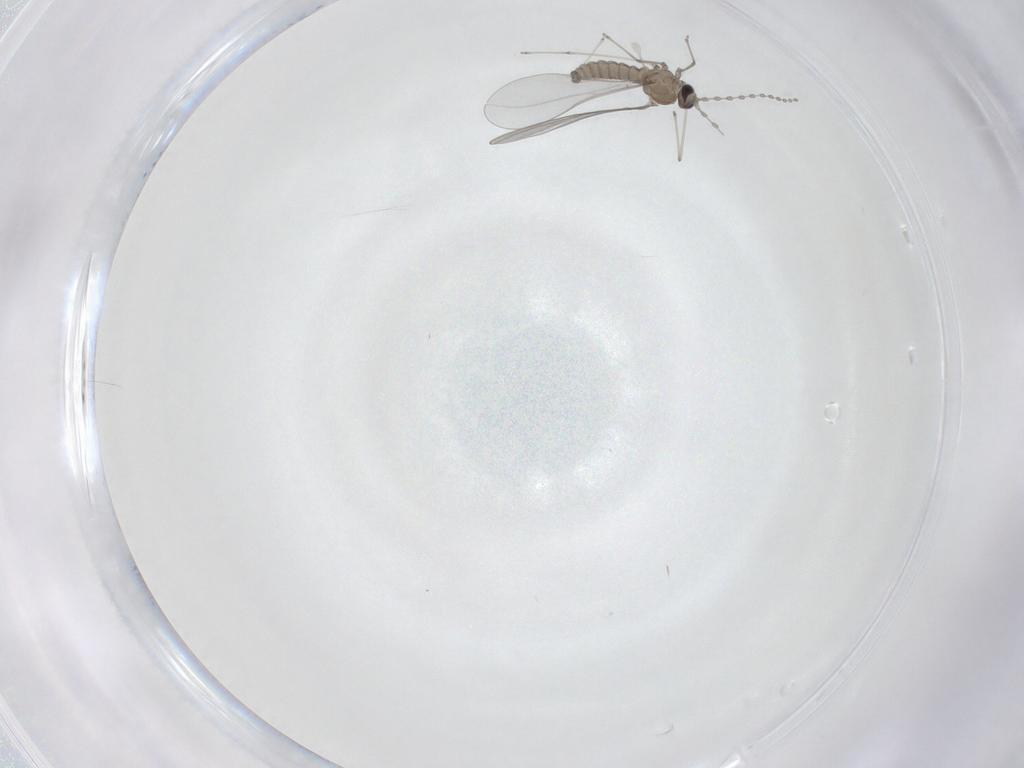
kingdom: Animalia
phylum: Arthropoda
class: Insecta
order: Diptera
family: Cecidomyiidae
